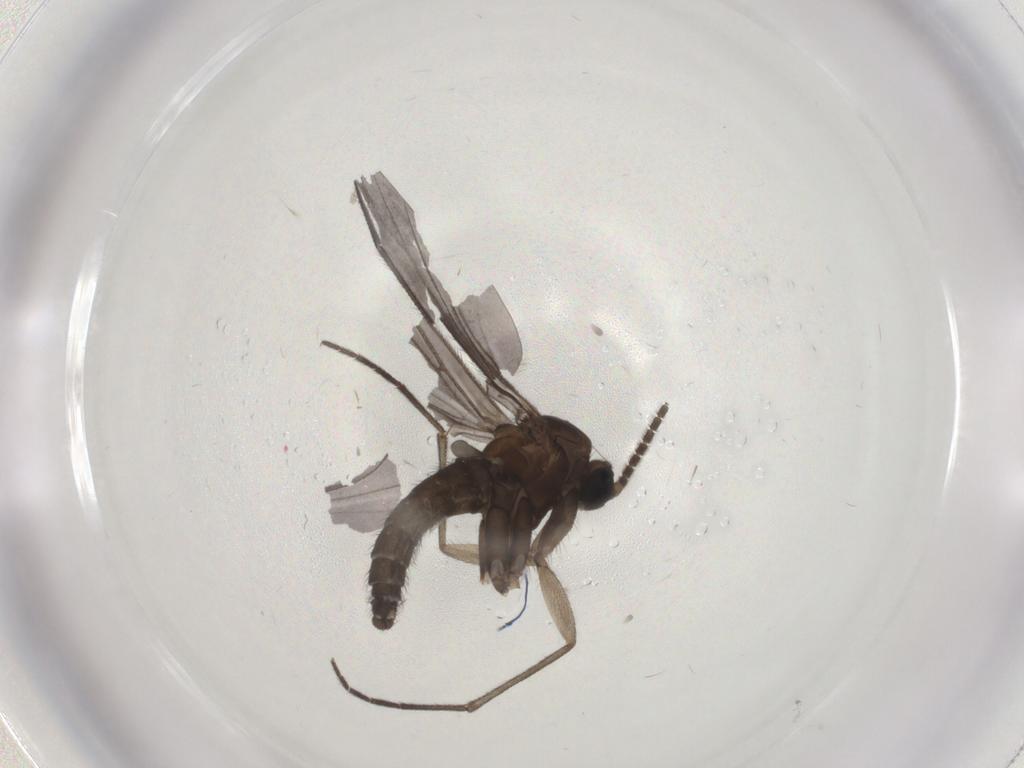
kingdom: Animalia
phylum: Arthropoda
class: Insecta
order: Diptera
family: Sciaridae
